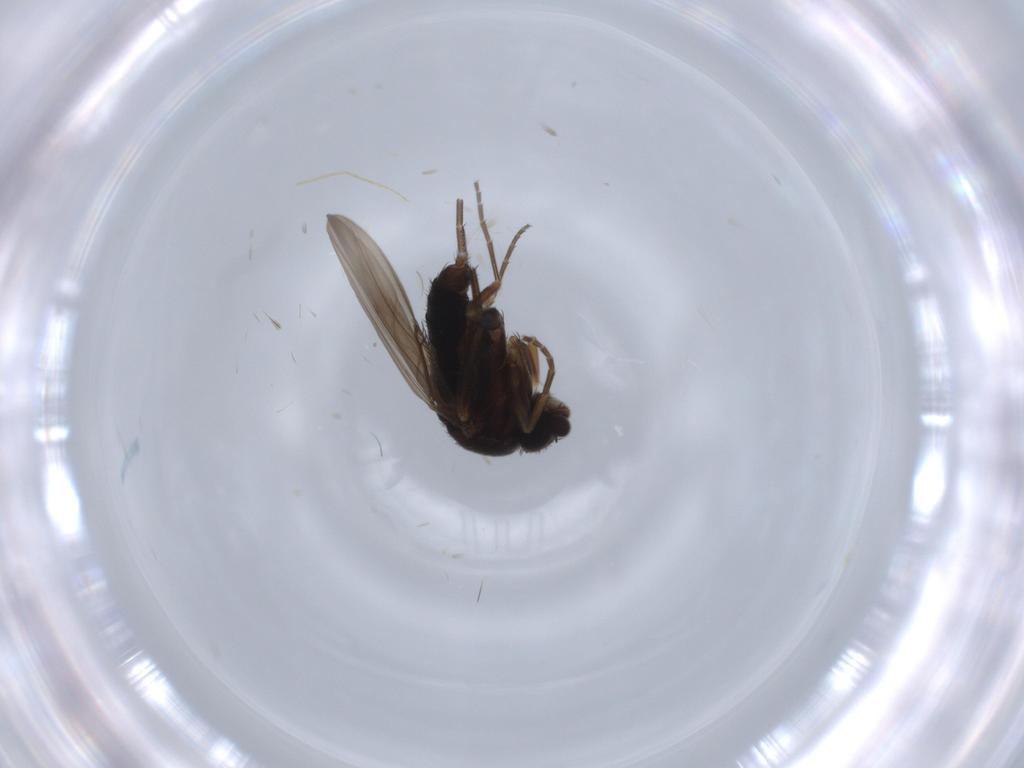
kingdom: Animalia
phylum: Arthropoda
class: Insecta
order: Diptera
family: Phoridae
